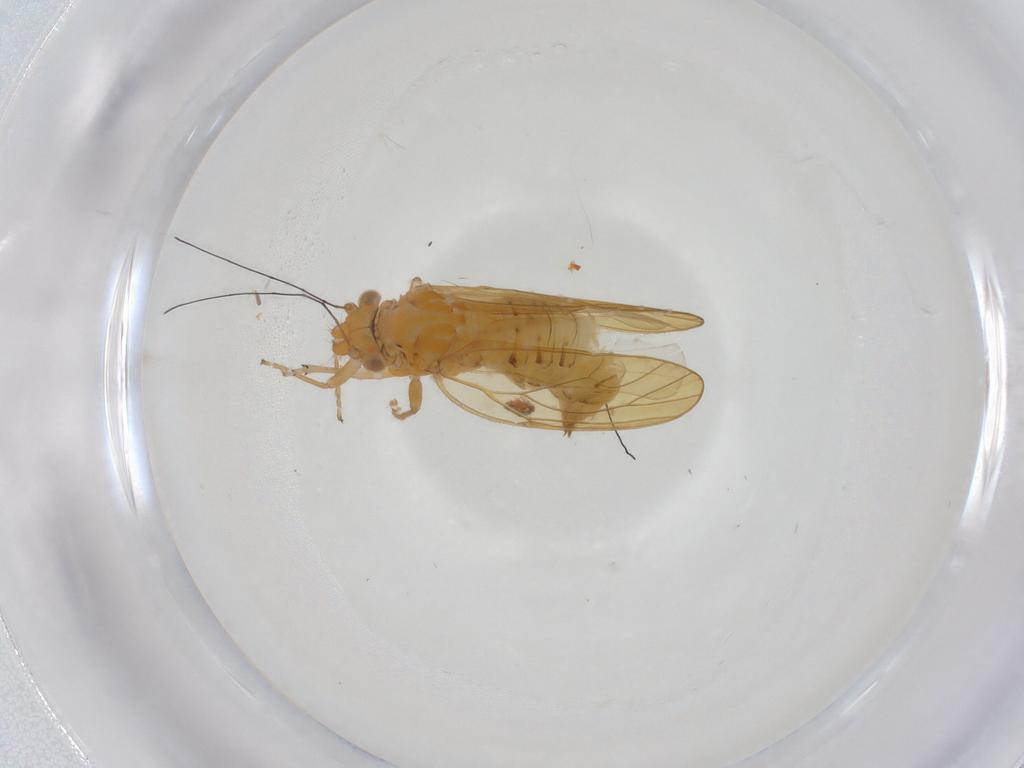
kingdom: Animalia
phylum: Arthropoda
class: Insecta
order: Hemiptera
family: Psyllidae
